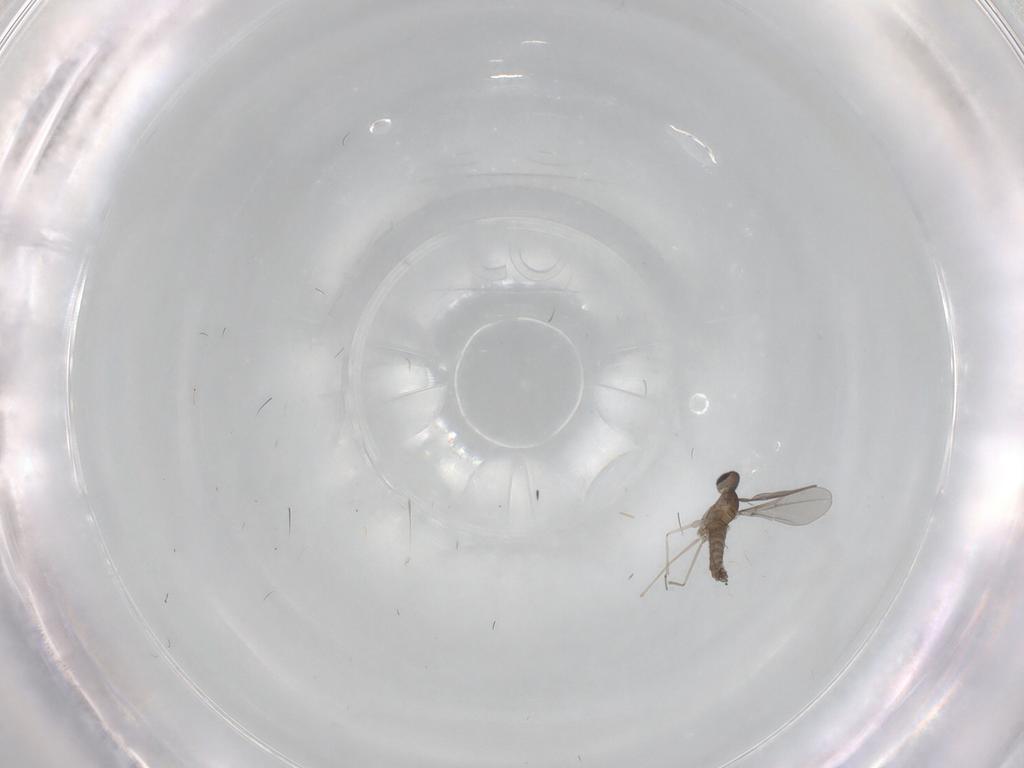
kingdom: Animalia
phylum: Arthropoda
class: Insecta
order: Diptera
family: Cecidomyiidae
